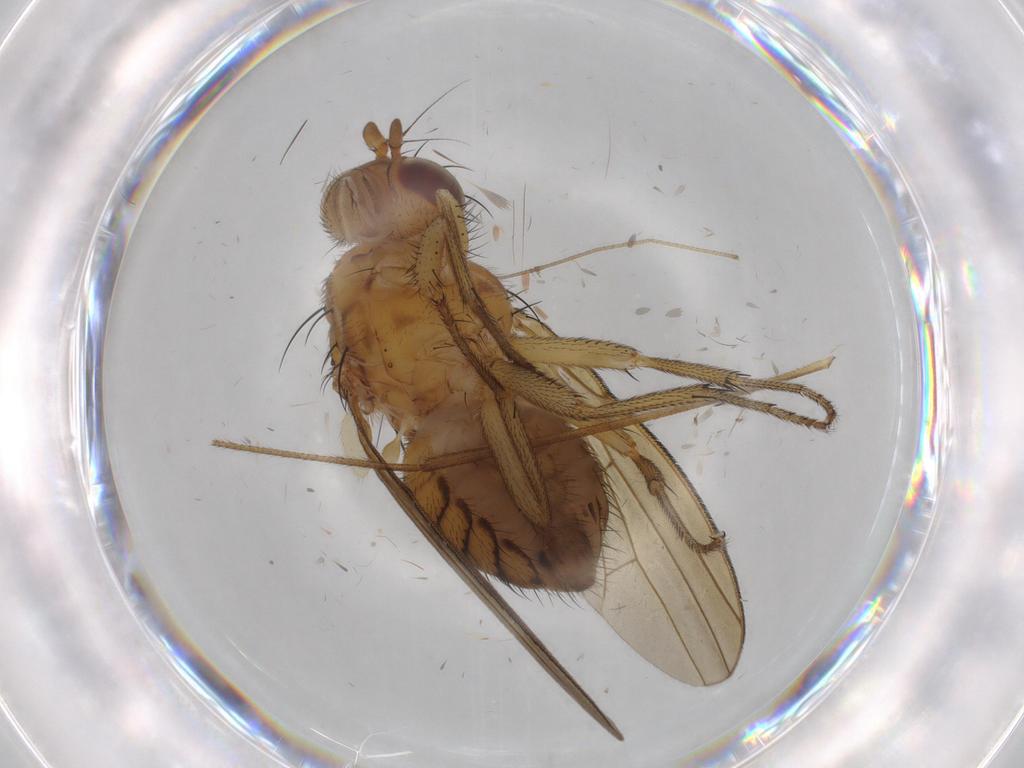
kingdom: Animalia
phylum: Arthropoda
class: Insecta
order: Diptera
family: Limoniidae
